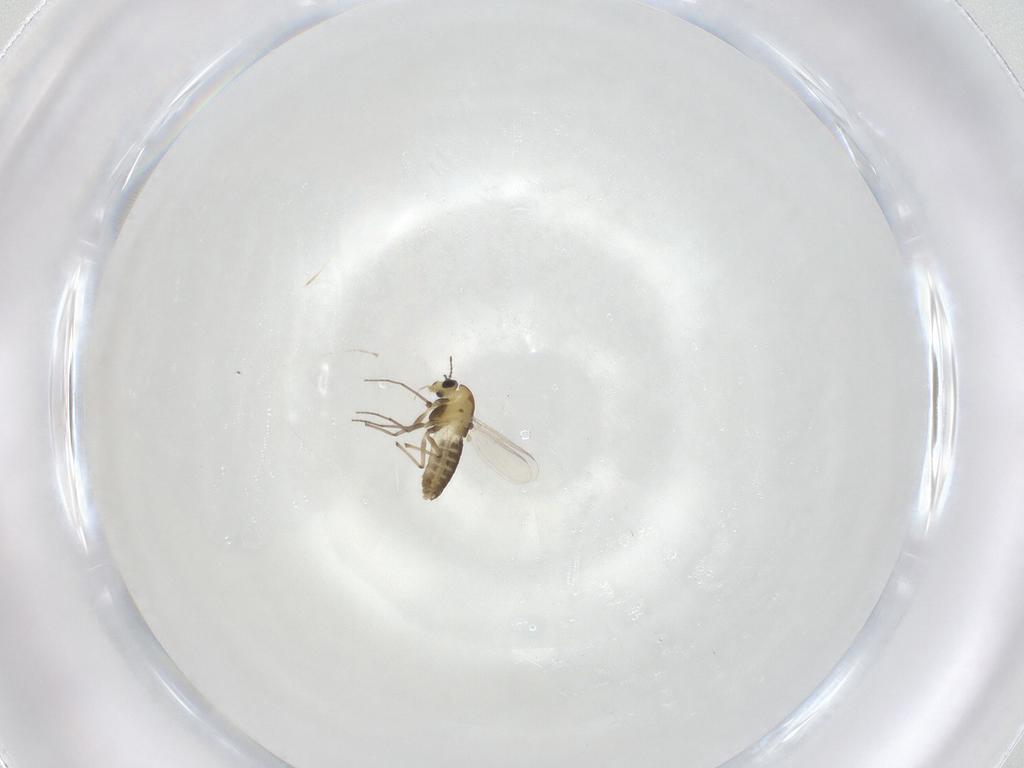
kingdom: Animalia
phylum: Arthropoda
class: Insecta
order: Diptera
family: Cecidomyiidae
